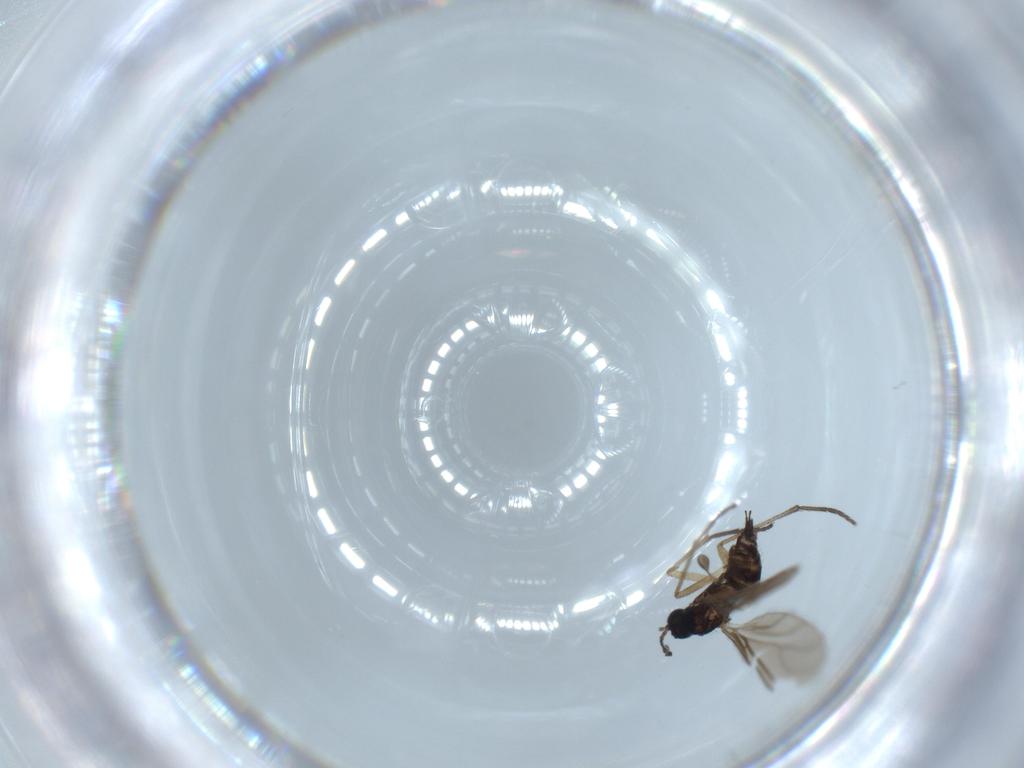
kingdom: Animalia
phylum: Arthropoda
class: Insecta
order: Diptera
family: Sciaridae
